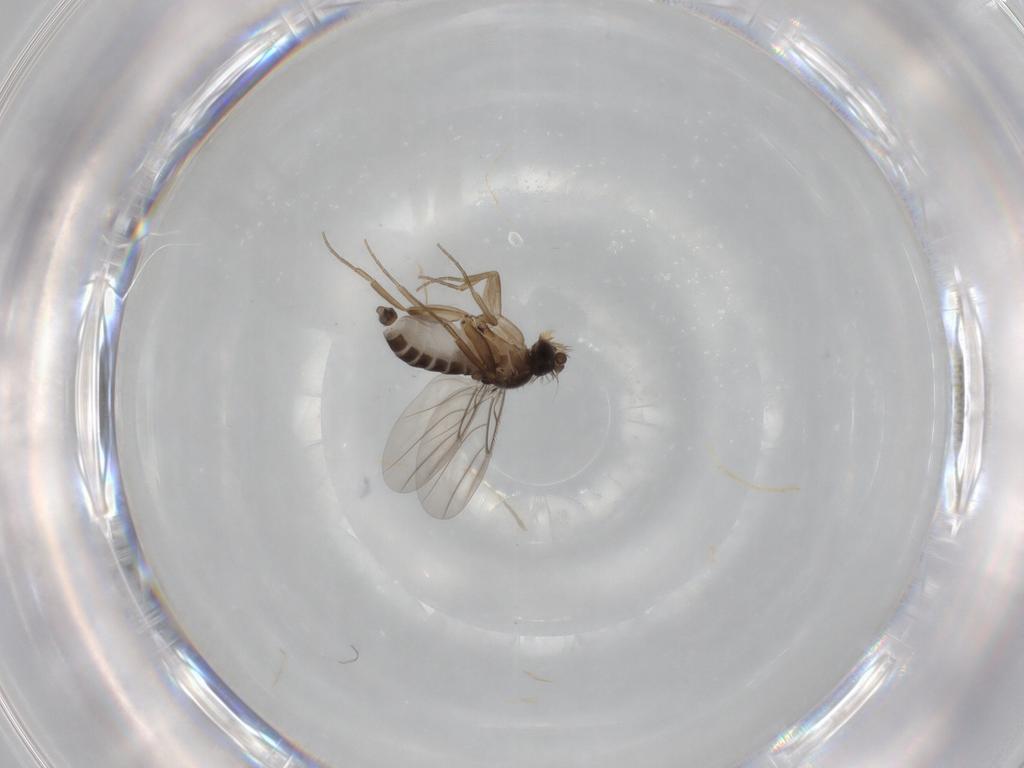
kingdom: Animalia
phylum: Arthropoda
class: Insecta
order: Diptera
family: Phoridae
